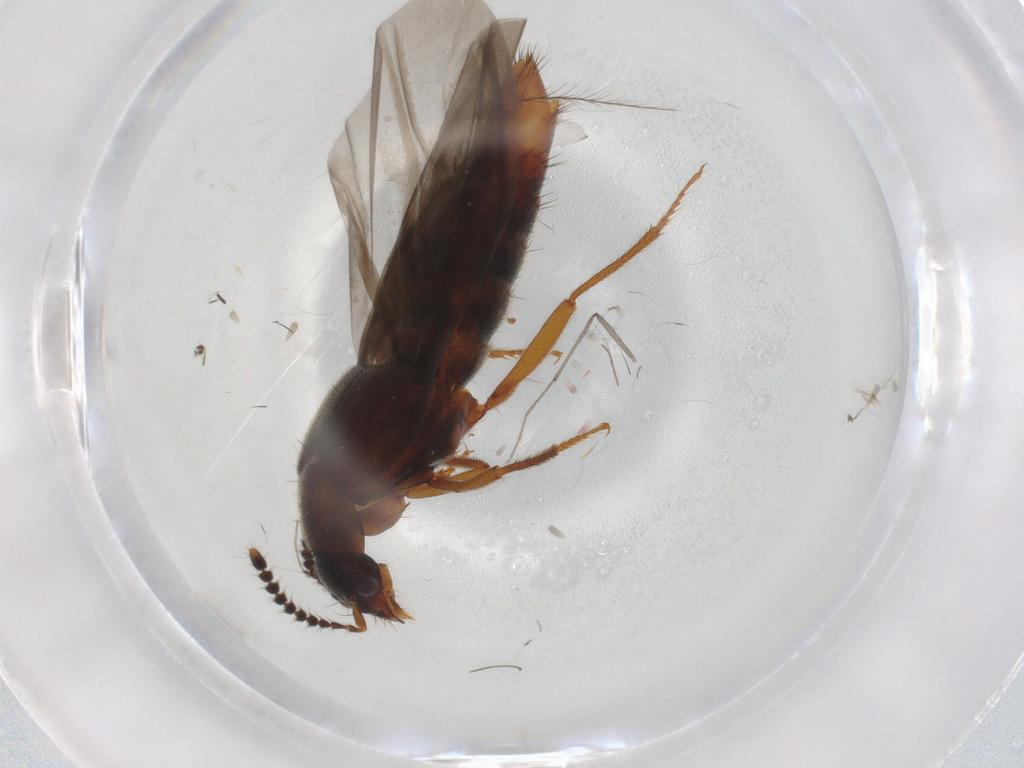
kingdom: Animalia
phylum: Arthropoda
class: Insecta
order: Coleoptera
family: Staphylinidae
